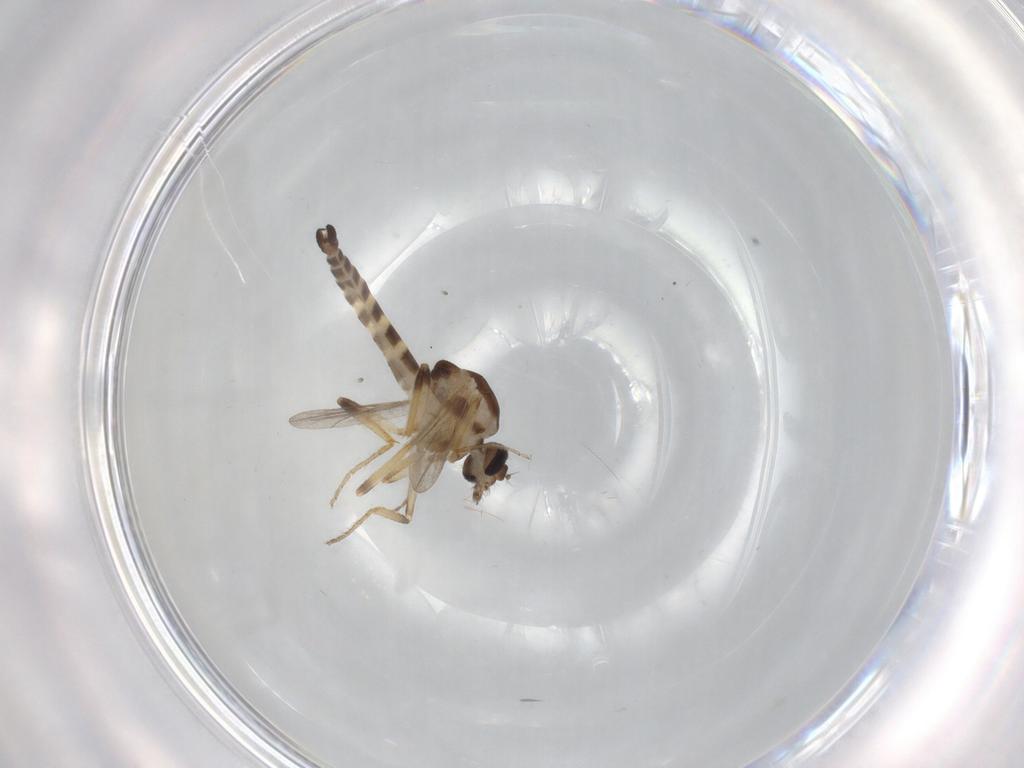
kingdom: Animalia
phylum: Arthropoda
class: Insecta
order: Diptera
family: Ceratopogonidae
